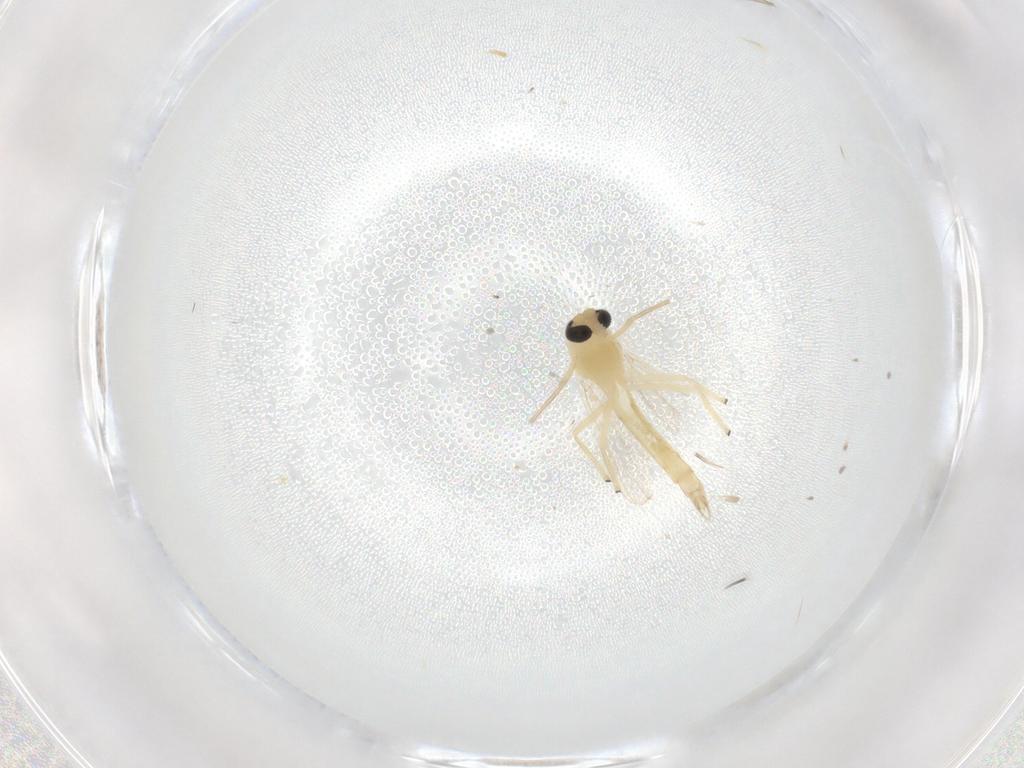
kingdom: Animalia
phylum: Arthropoda
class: Insecta
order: Diptera
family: Chironomidae
